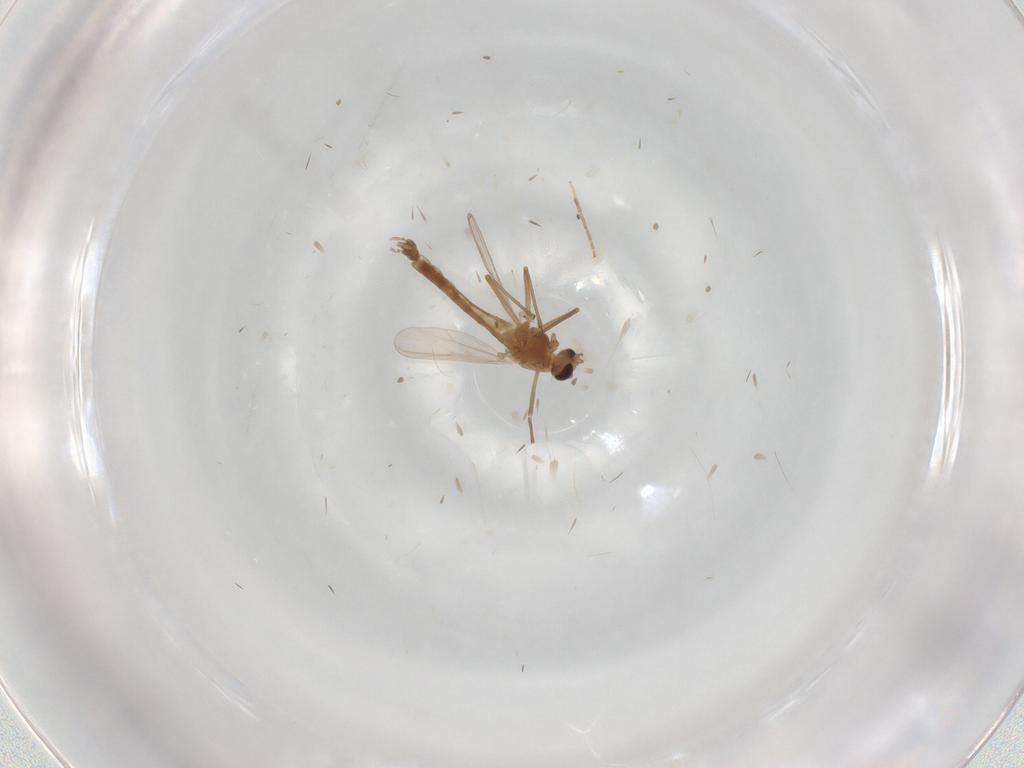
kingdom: Animalia
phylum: Arthropoda
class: Insecta
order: Diptera
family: Chironomidae
